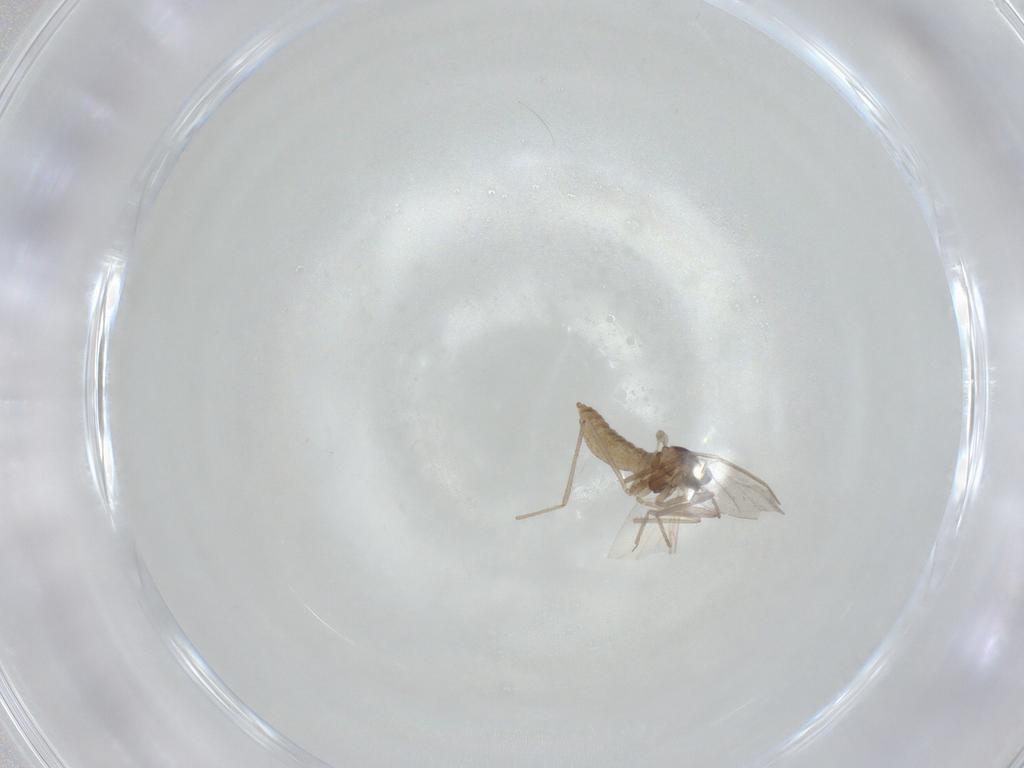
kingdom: Animalia
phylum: Arthropoda
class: Insecta
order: Diptera
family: Cecidomyiidae
